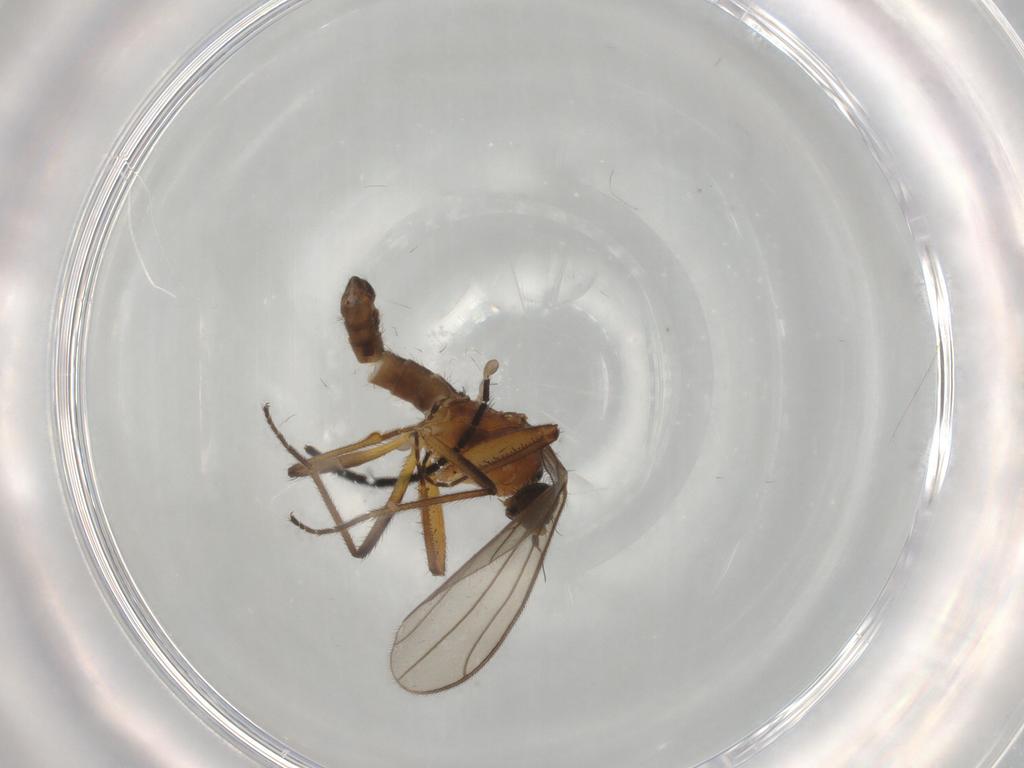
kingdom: Animalia
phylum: Arthropoda
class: Insecta
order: Diptera
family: Empididae
